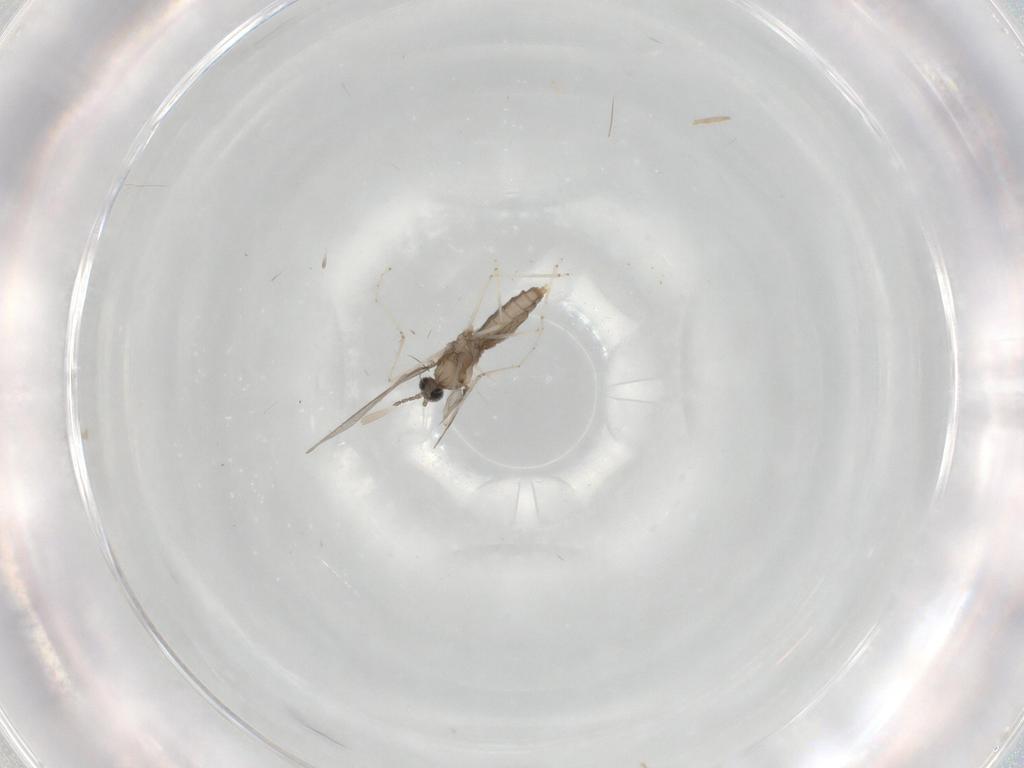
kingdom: Animalia
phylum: Arthropoda
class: Insecta
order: Diptera
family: Cecidomyiidae
